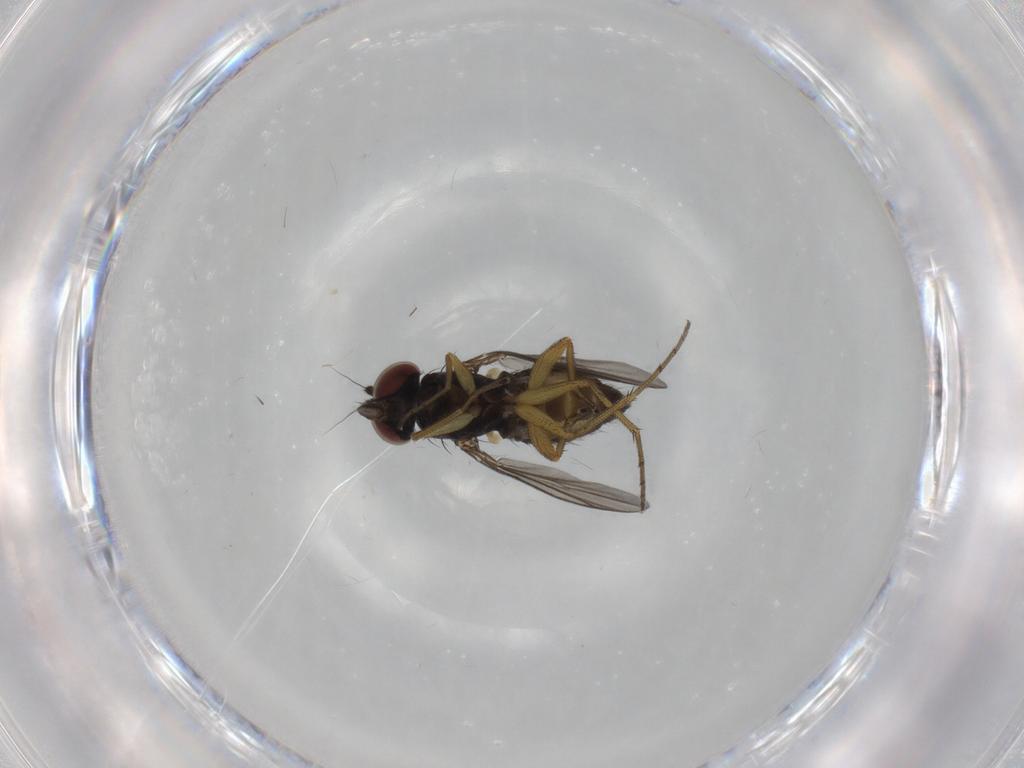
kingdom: Animalia
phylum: Arthropoda
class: Insecta
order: Diptera
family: Dolichopodidae
